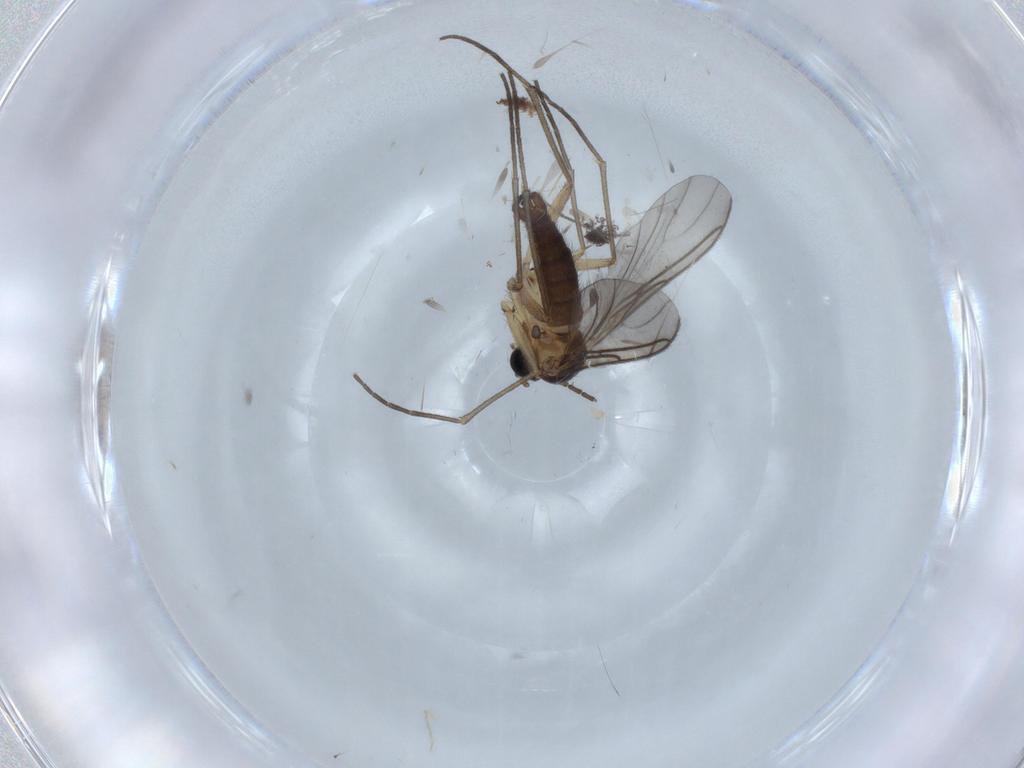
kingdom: Animalia
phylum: Arthropoda
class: Insecta
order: Diptera
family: Sciaridae
